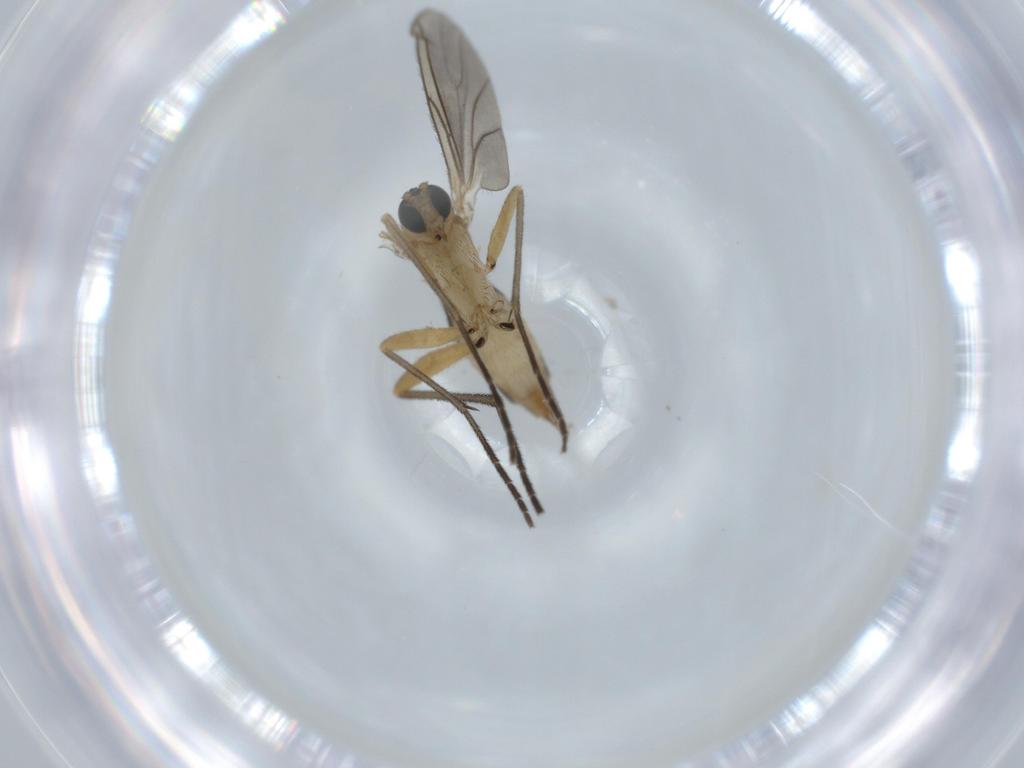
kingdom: Animalia
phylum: Arthropoda
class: Insecta
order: Diptera
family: Sciaridae
